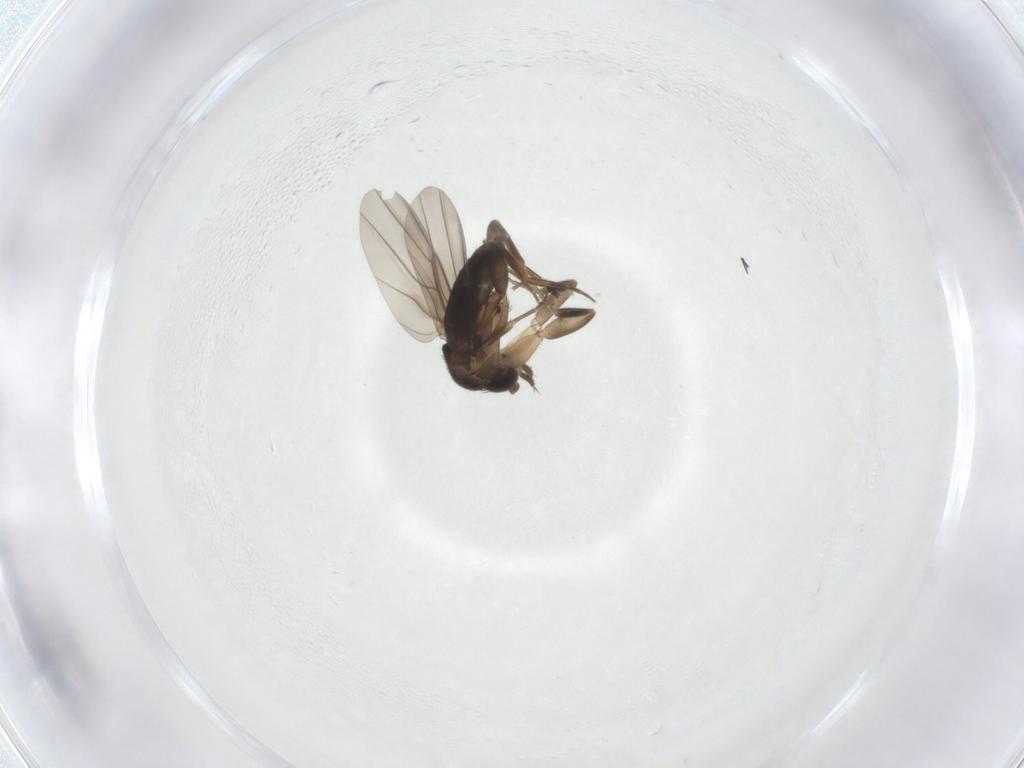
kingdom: Animalia
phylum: Arthropoda
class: Insecta
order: Diptera
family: Phoridae
